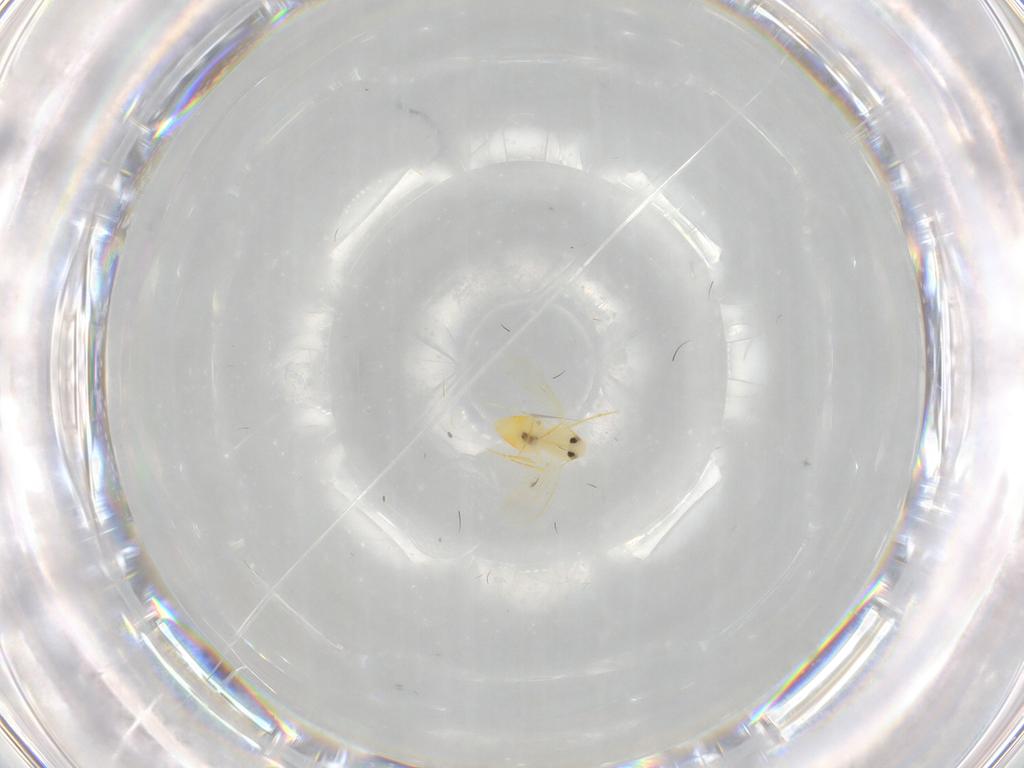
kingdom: Animalia
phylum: Arthropoda
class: Insecta
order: Hemiptera
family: Aleyrodidae
